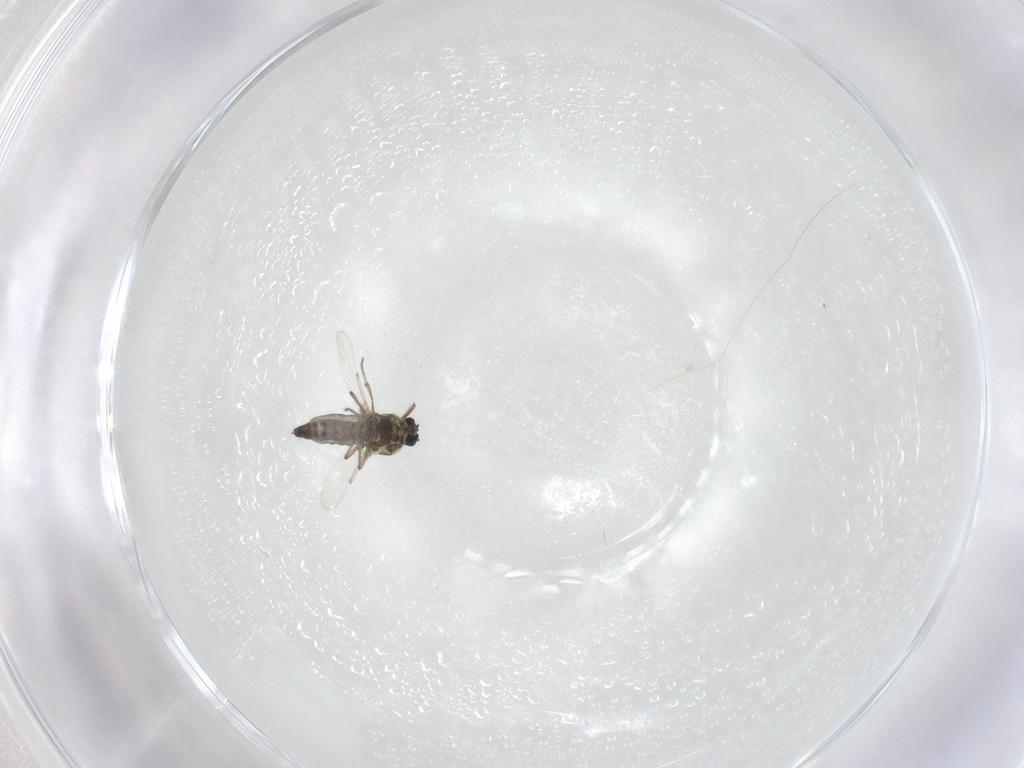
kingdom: Animalia
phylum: Arthropoda
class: Insecta
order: Diptera
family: Ceratopogonidae
